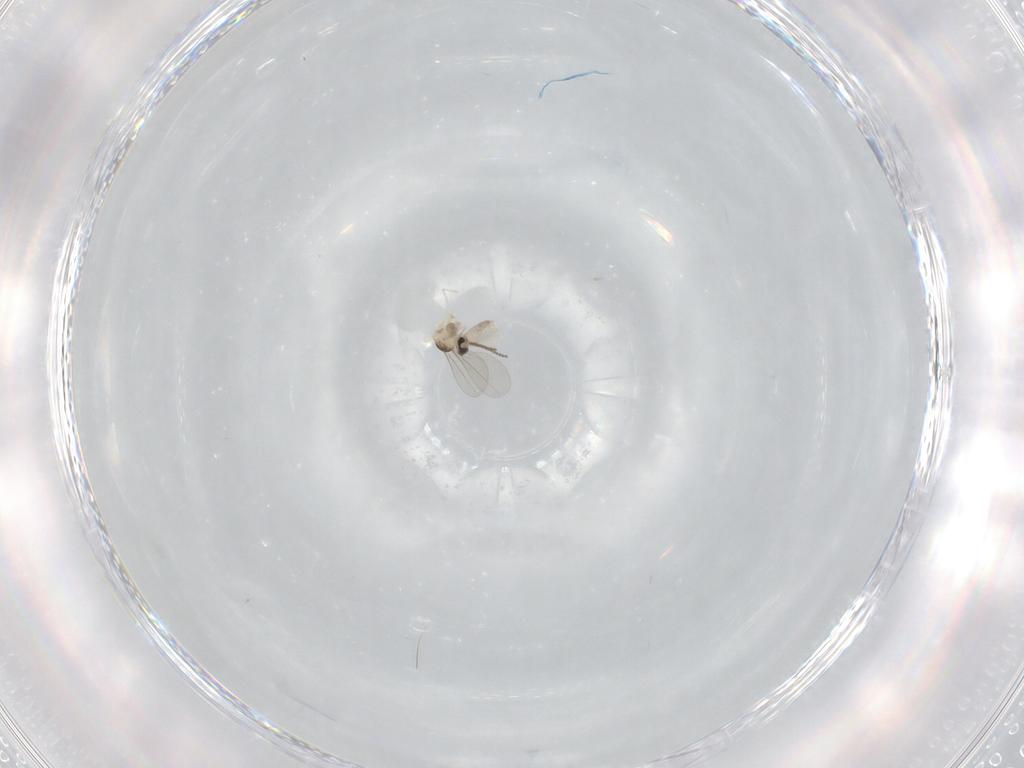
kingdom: Animalia
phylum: Arthropoda
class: Insecta
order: Diptera
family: Cecidomyiidae
